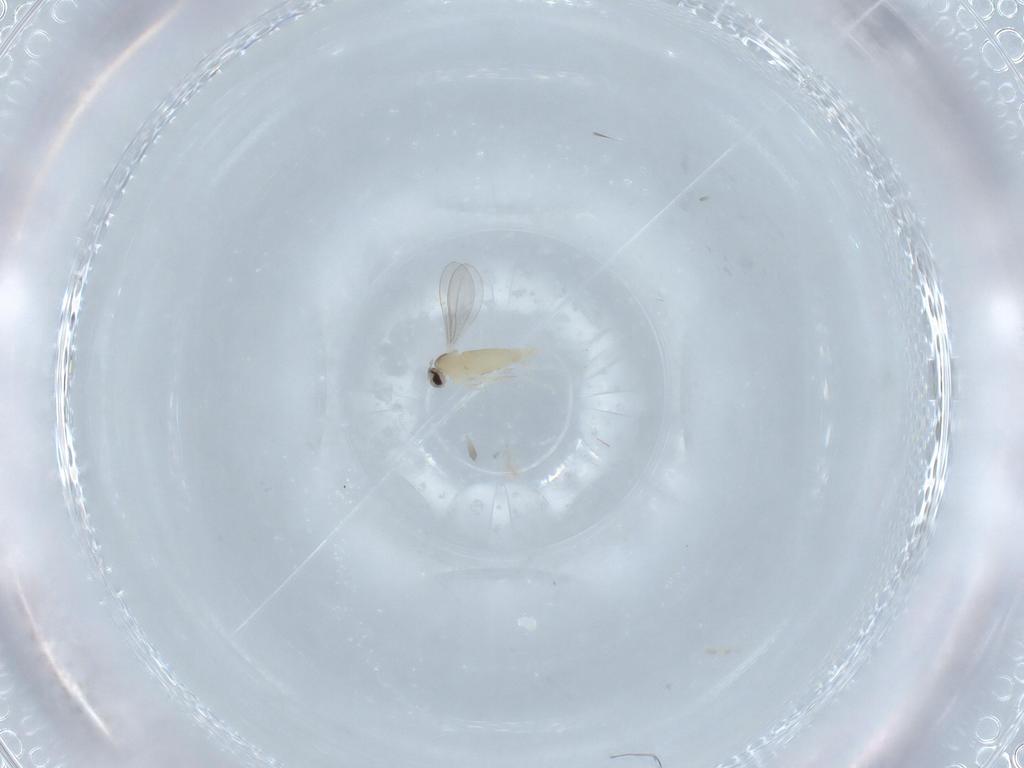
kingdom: Animalia
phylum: Arthropoda
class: Insecta
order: Diptera
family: Cecidomyiidae
